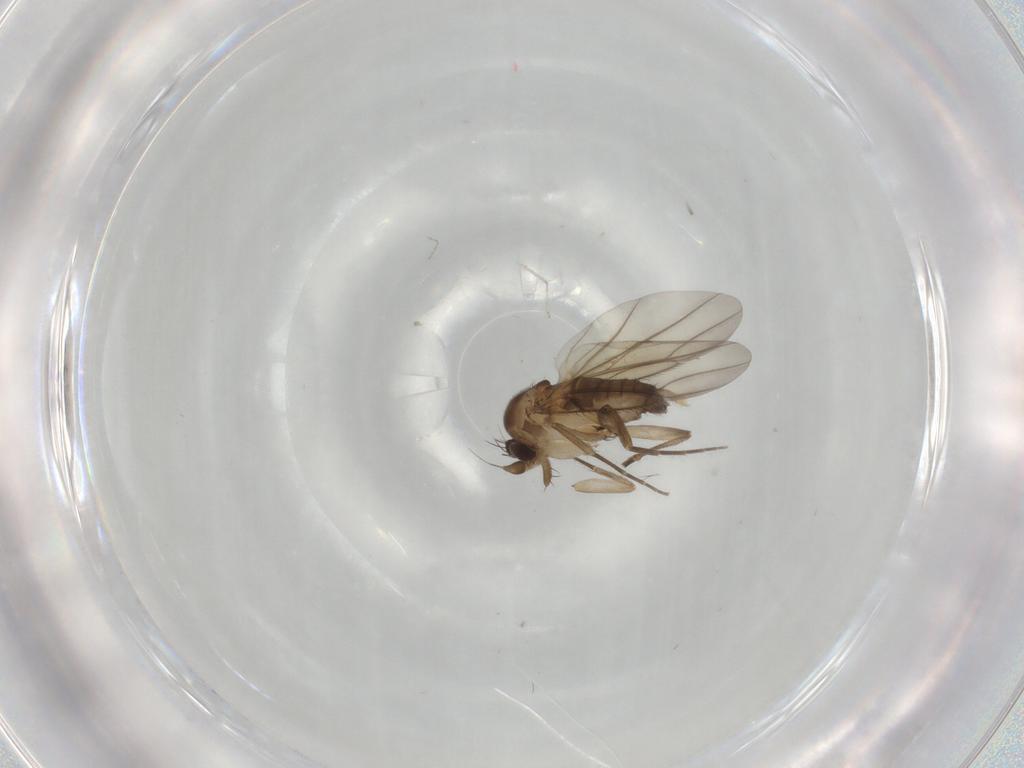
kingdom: Animalia
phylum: Arthropoda
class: Insecta
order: Diptera
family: Phoridae
